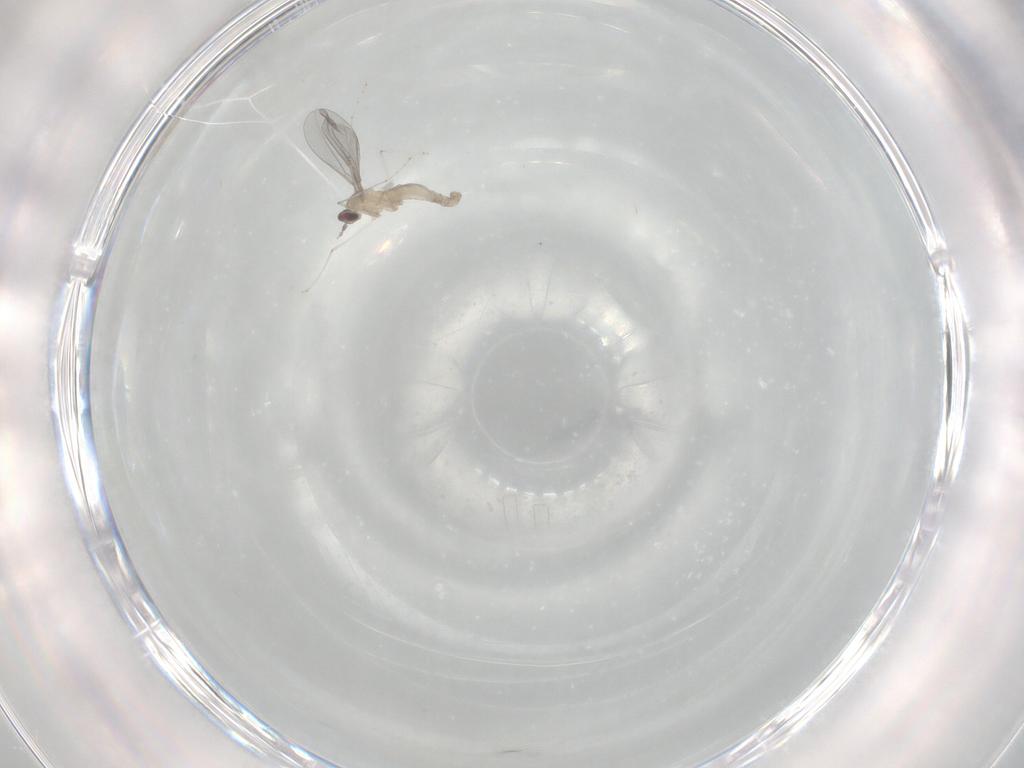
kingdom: Animalia
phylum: Arthropoda
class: Insecta
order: Diptera
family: Cecidomyiidae
